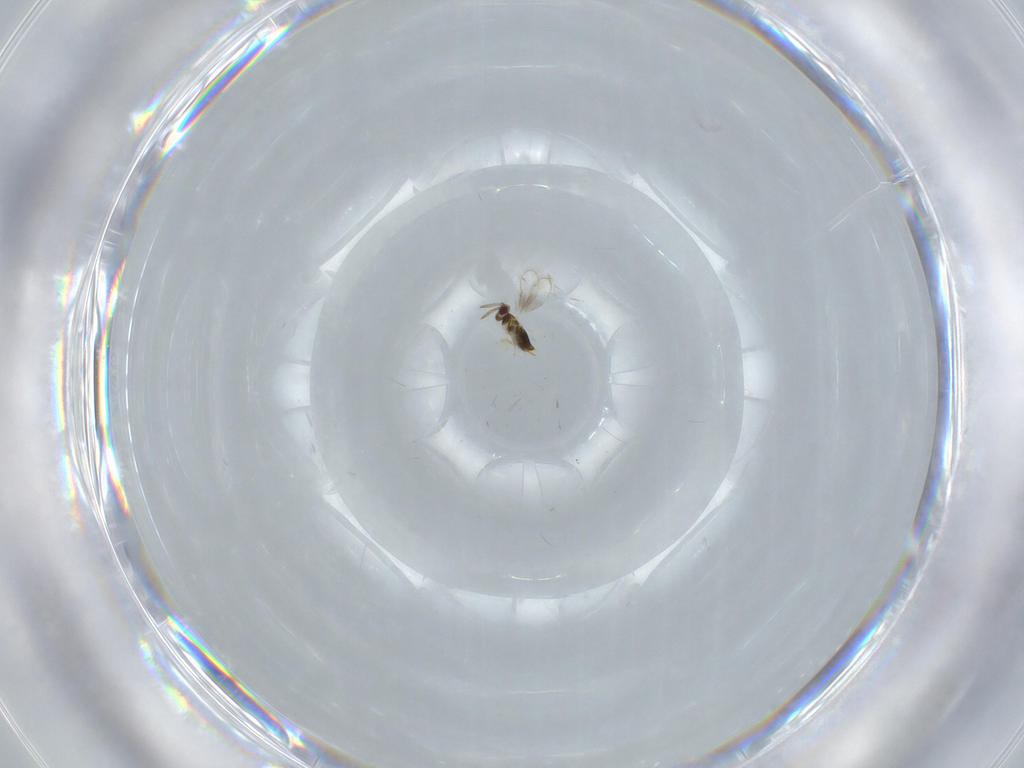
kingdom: Animalia
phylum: Arthropoda
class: Insecta
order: Hymenoptera
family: Aphelinidae
